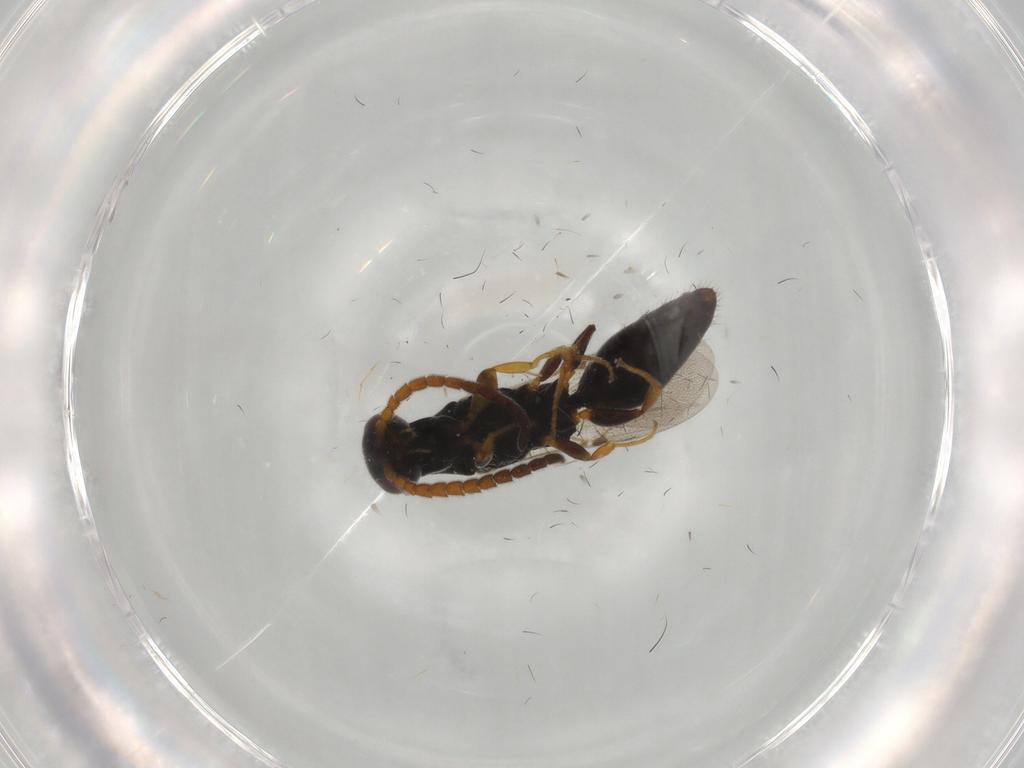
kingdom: Animalia
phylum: Arthropoda
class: Insecta
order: Hymenoptera
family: Bethylidae
